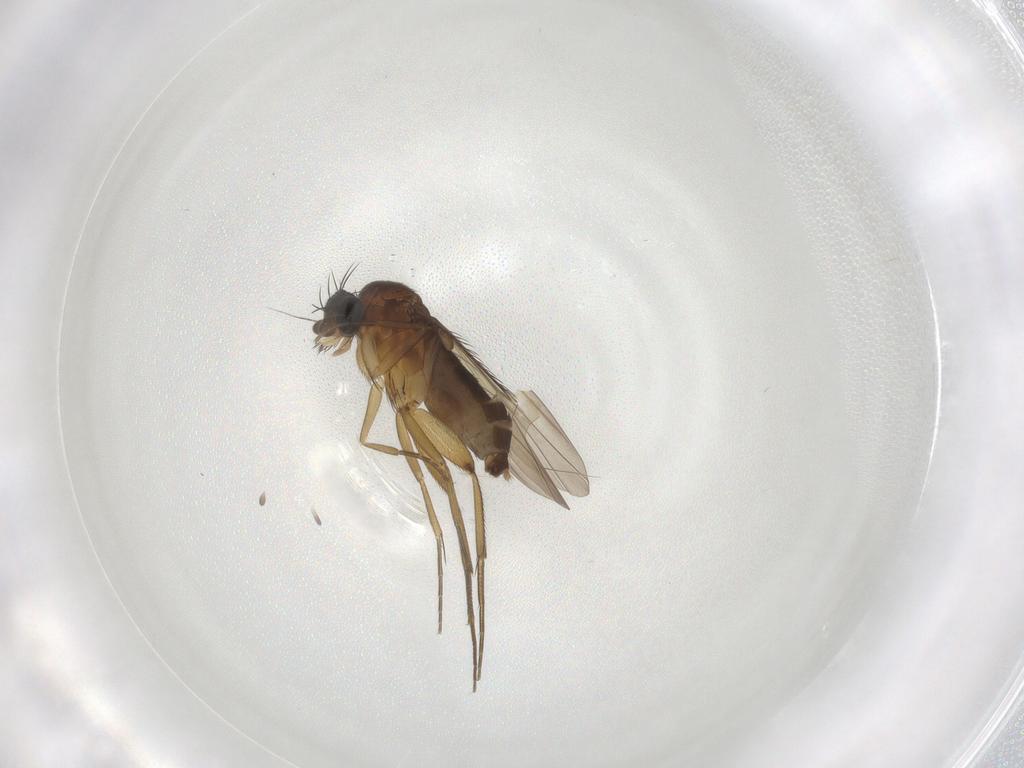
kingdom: Animalia
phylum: Arthropoda
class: Insecta
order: Diptera
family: Phoridae
